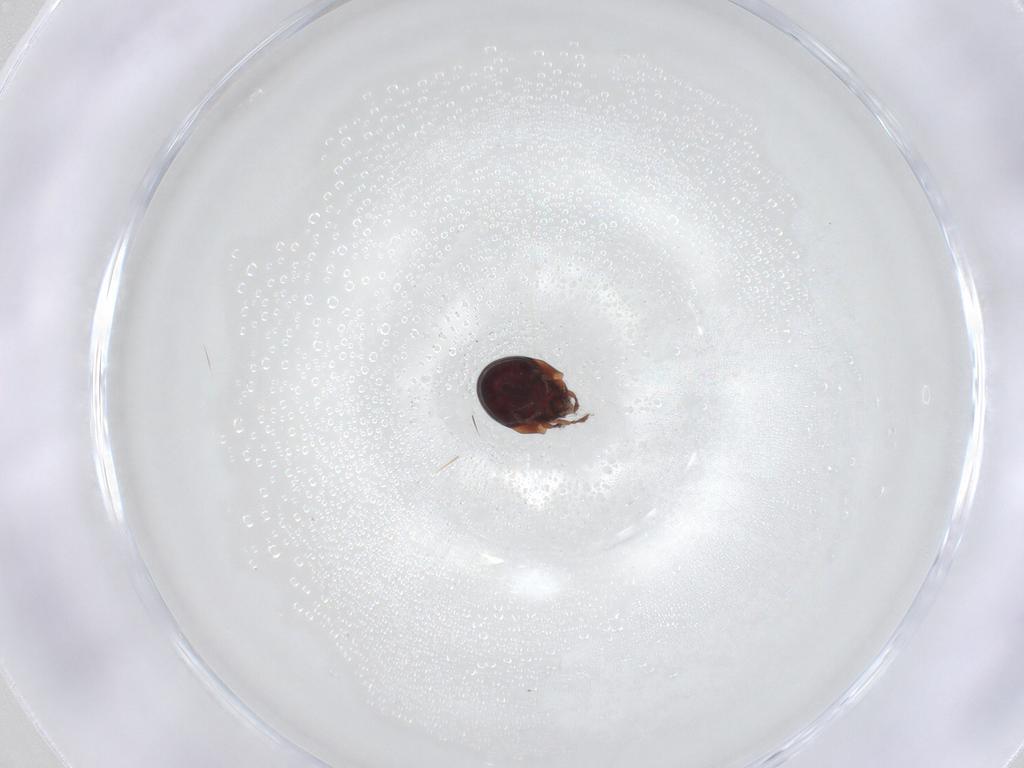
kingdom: Animalia
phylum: Arthropoda
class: Arachnida
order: Sarcoptiformes
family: Humerobatidae
